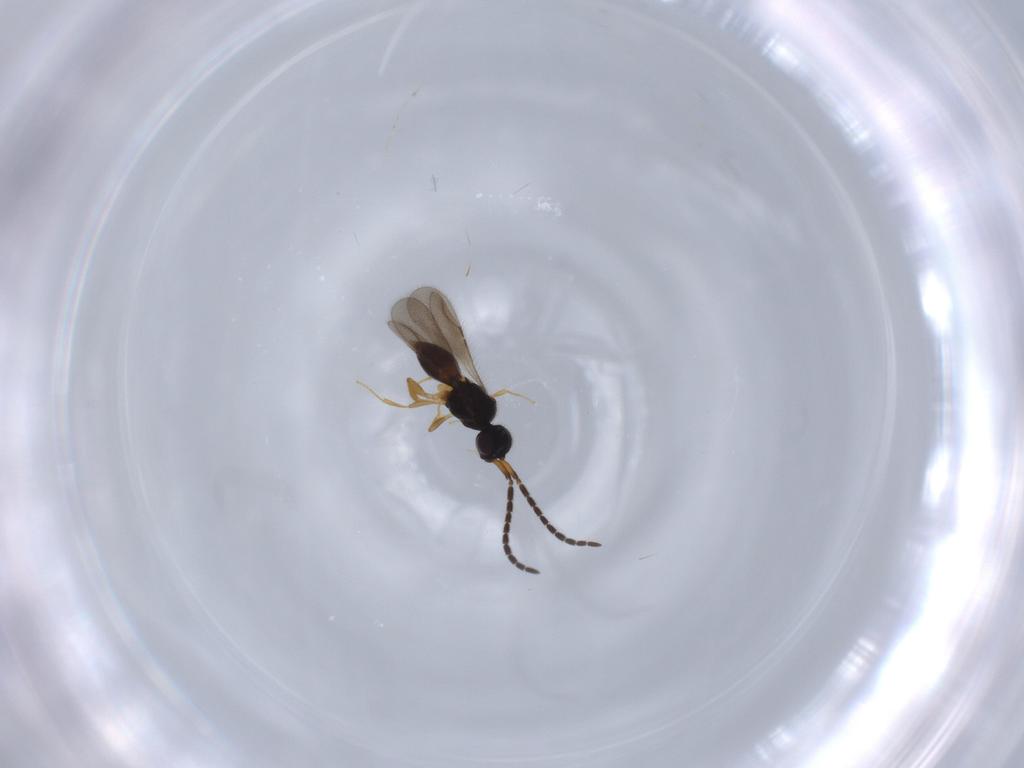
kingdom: Animalia
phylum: Arthropoda
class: Insecta
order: Hymenoptera
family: Ceraphronidae
